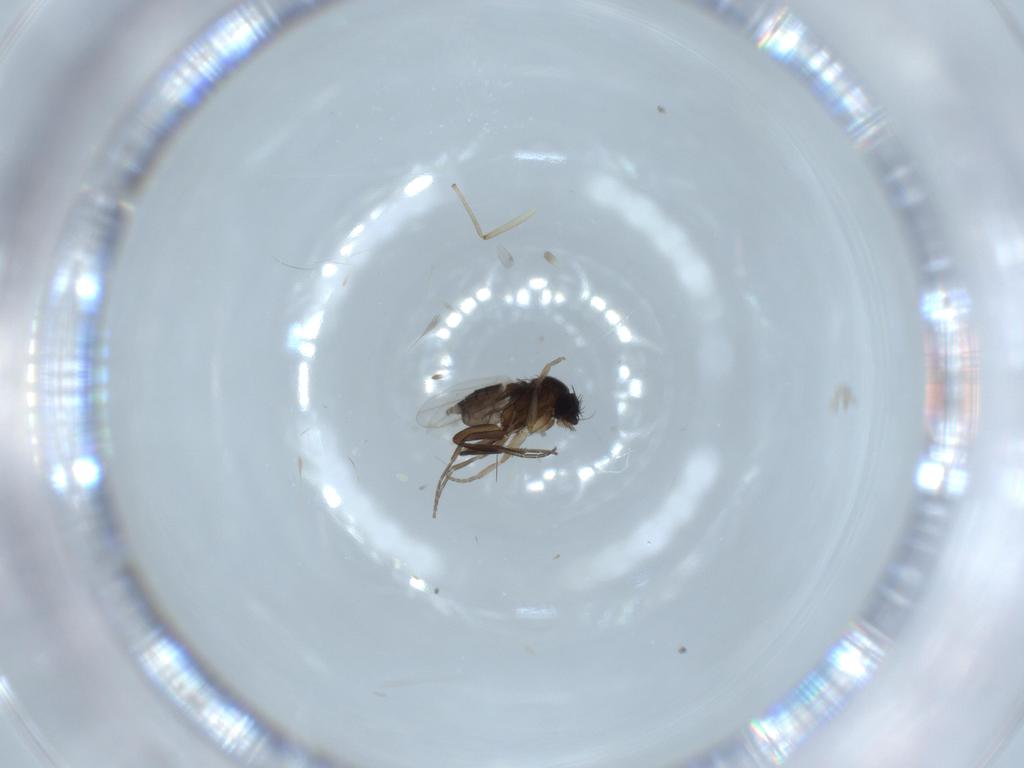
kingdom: Animalia
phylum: Arthropoda
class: Insecta
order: Diptera
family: Phoridae
